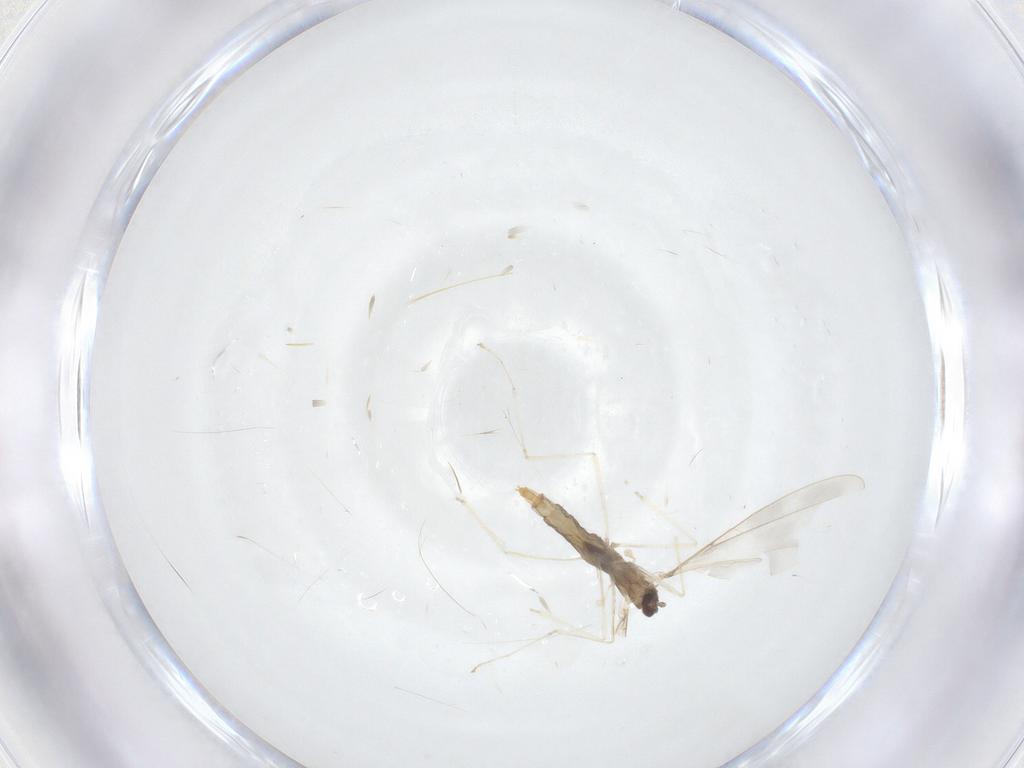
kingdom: Animalia
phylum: Arthropoda
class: Insecta
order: Diptera
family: Cecidomyiidae
